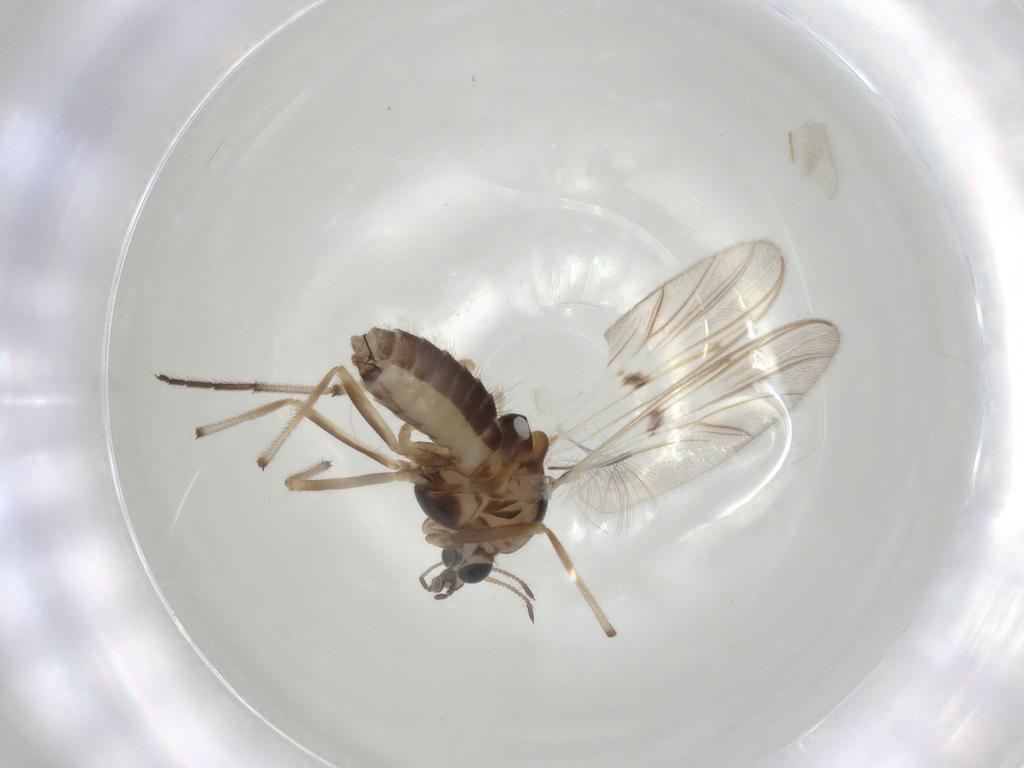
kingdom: Animalia
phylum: Arthropoda
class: Insecta
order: Diptera
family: Chironomidae
